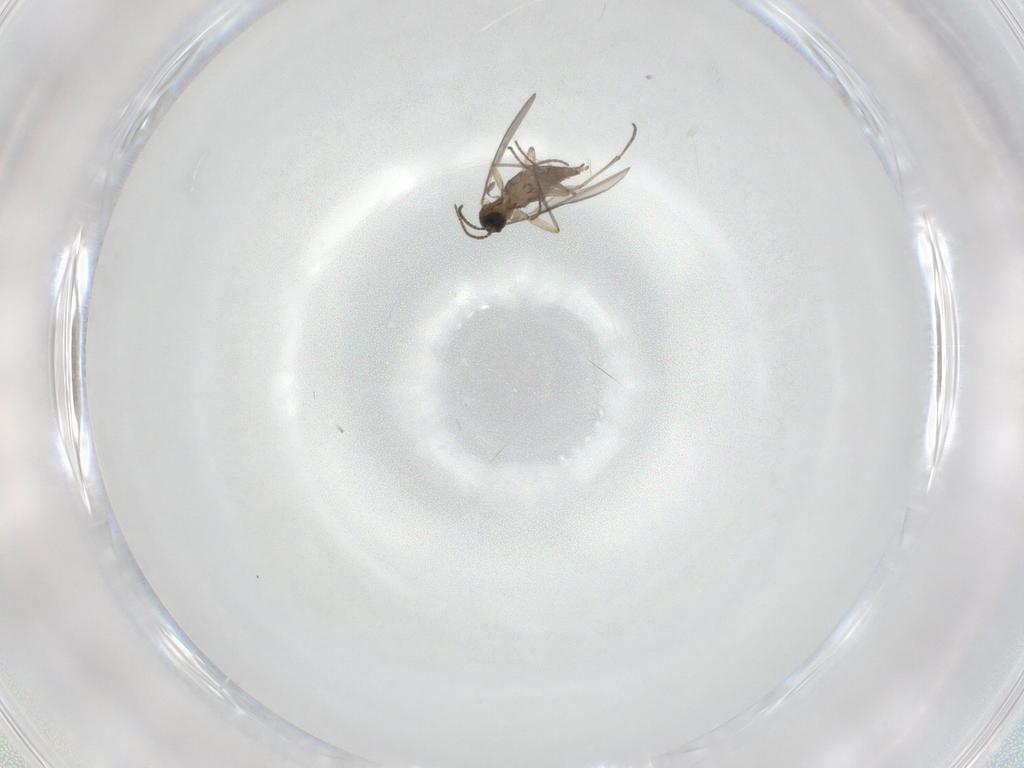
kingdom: Animalia
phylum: Arthropoda
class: Insecta
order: Diptera
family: Sciaridae
